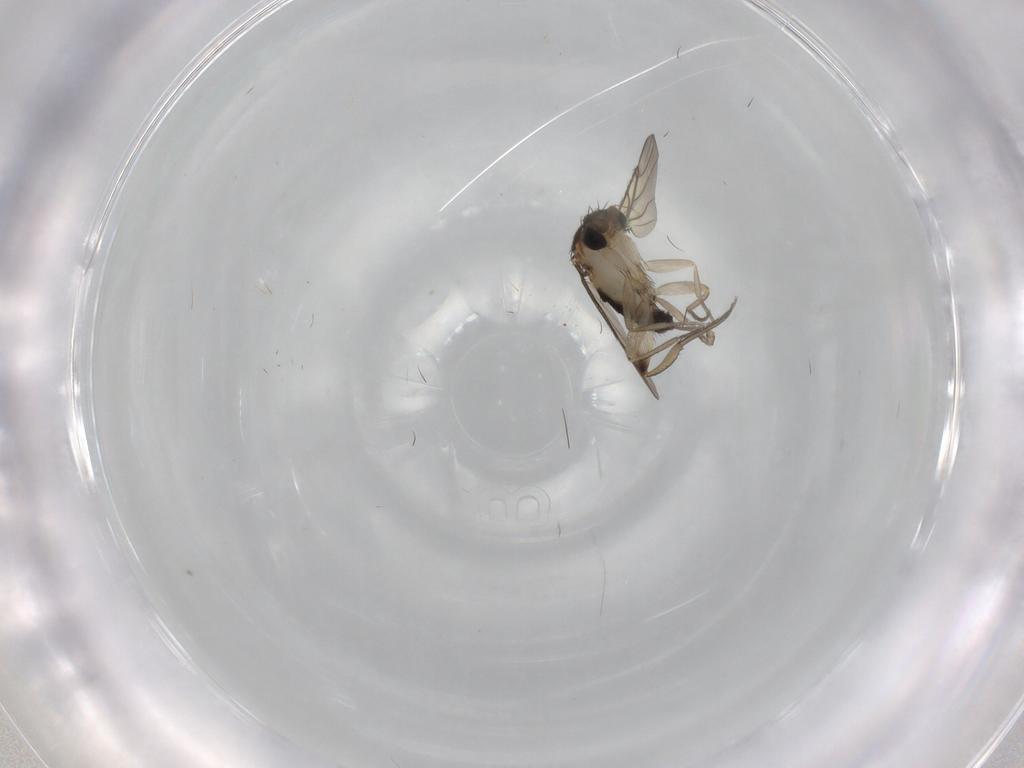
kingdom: Animalia
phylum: Arthropoda
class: Insecta
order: Diptera
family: Phoridae
